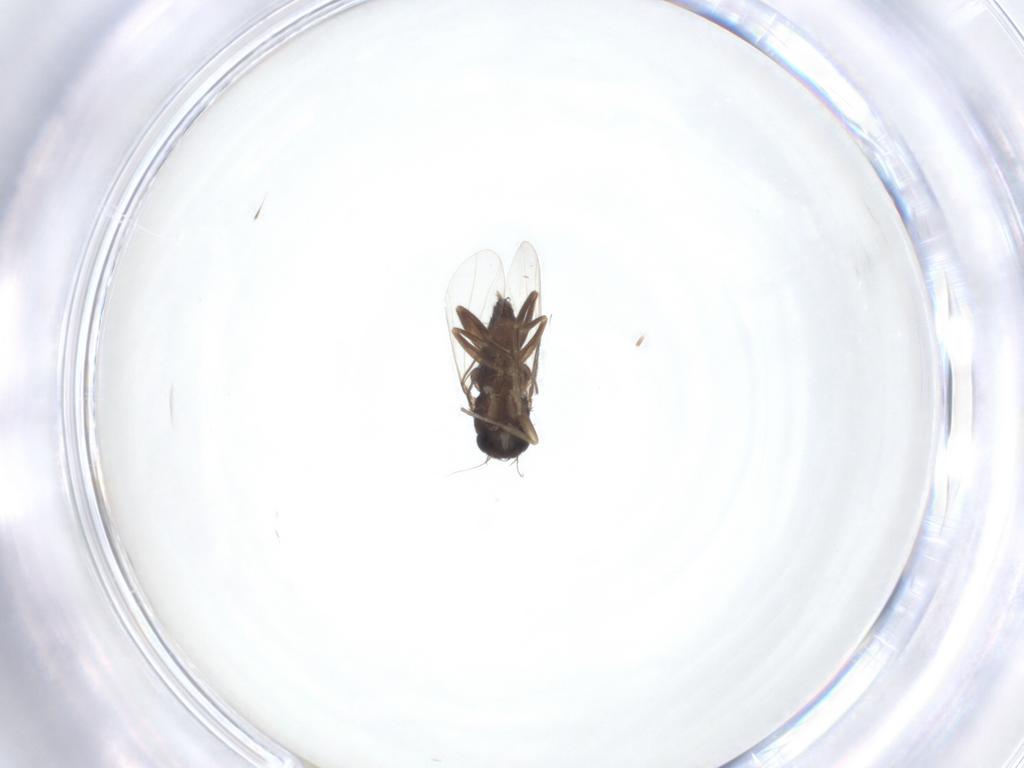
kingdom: Animalia
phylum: Arthropoda
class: Insecta
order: Diptera
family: Phoridae
